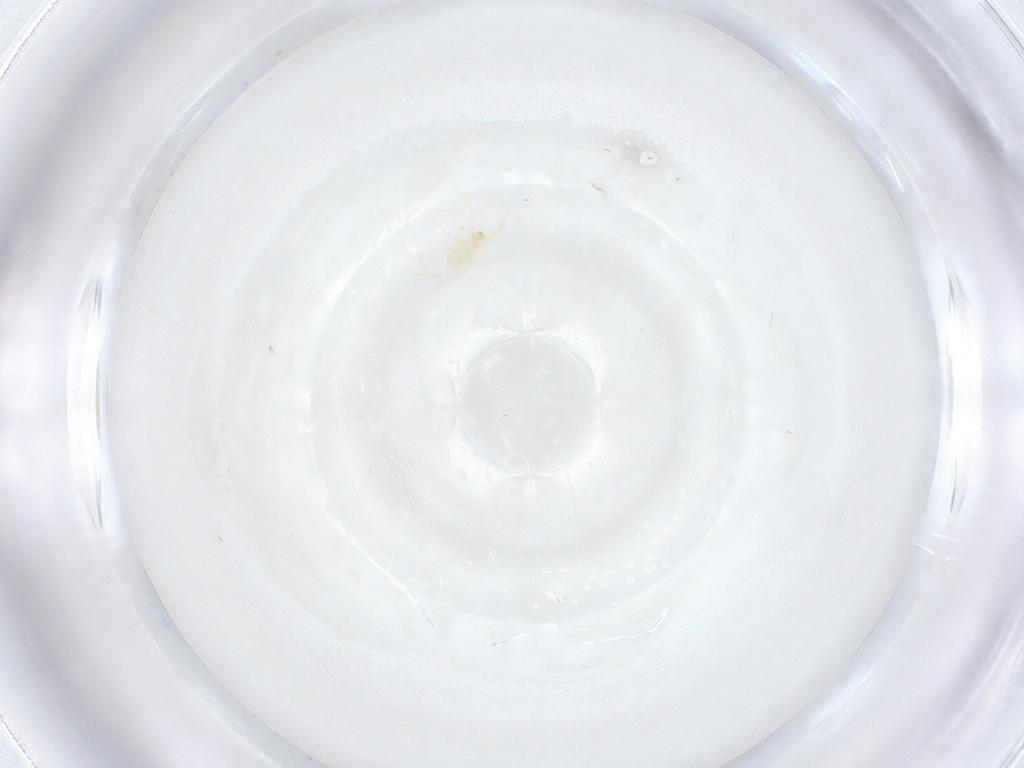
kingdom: Animalia
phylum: Arthropoda
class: Arachnida
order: Trombidiformes
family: Erythraeidae
